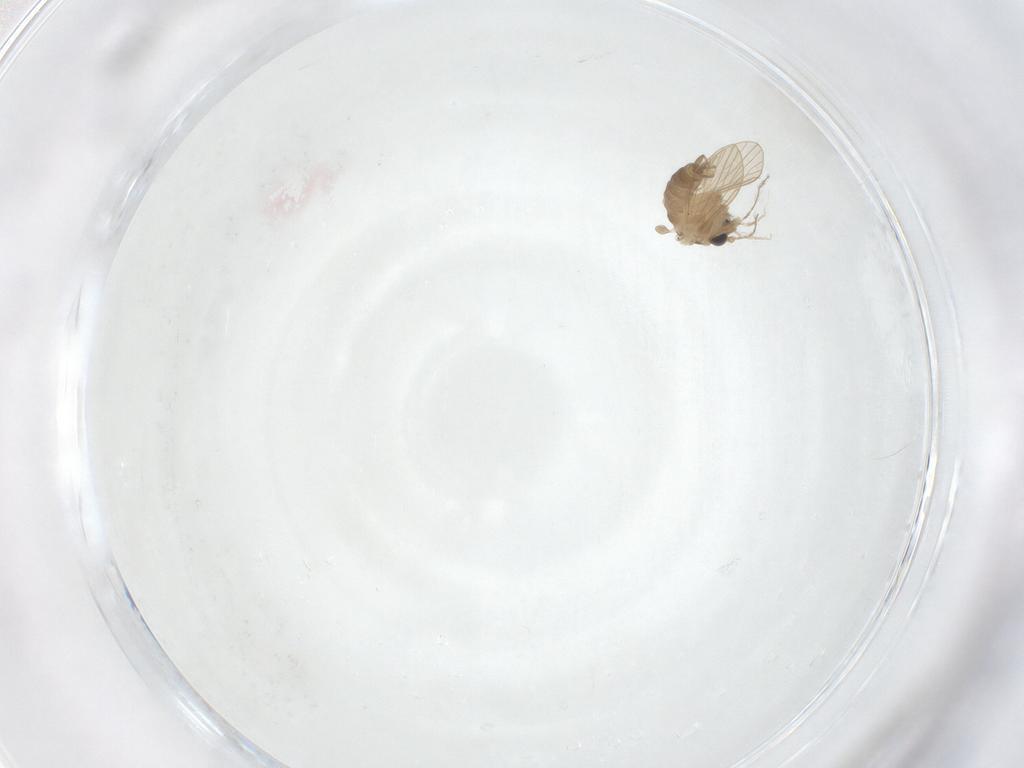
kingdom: Animalia
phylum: Arthropoda
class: Insecta
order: Diptera
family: Psychodidae
